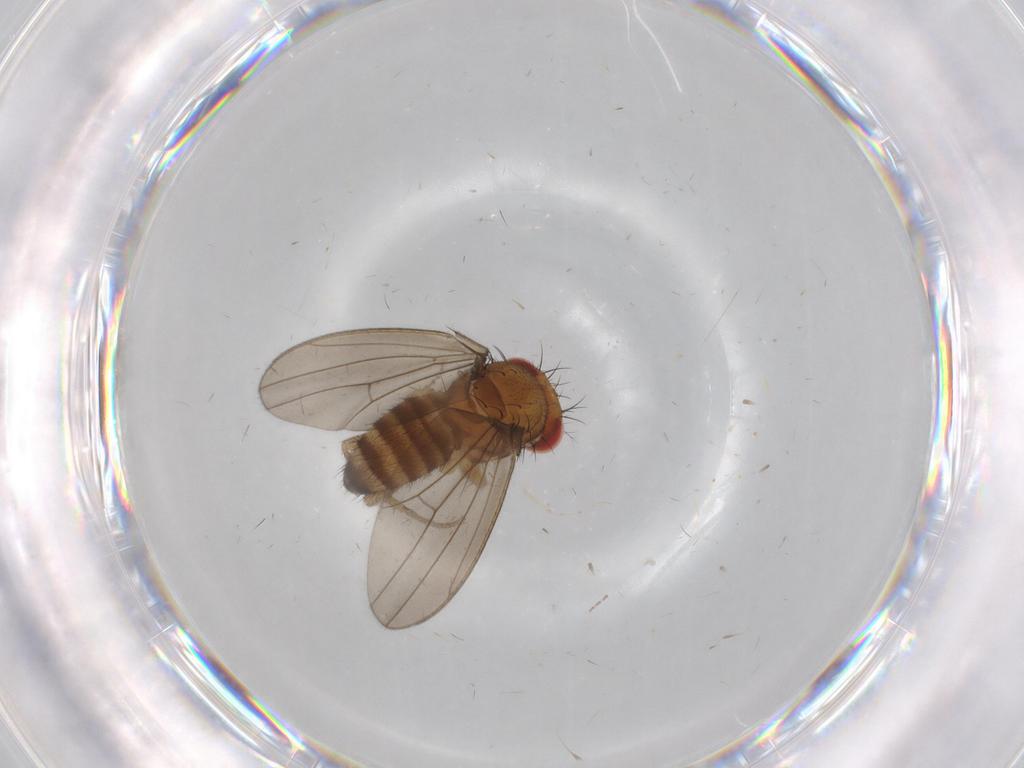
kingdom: Animalia
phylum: Arthropoda
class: Insecta
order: Diptera
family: Drosophilidae
